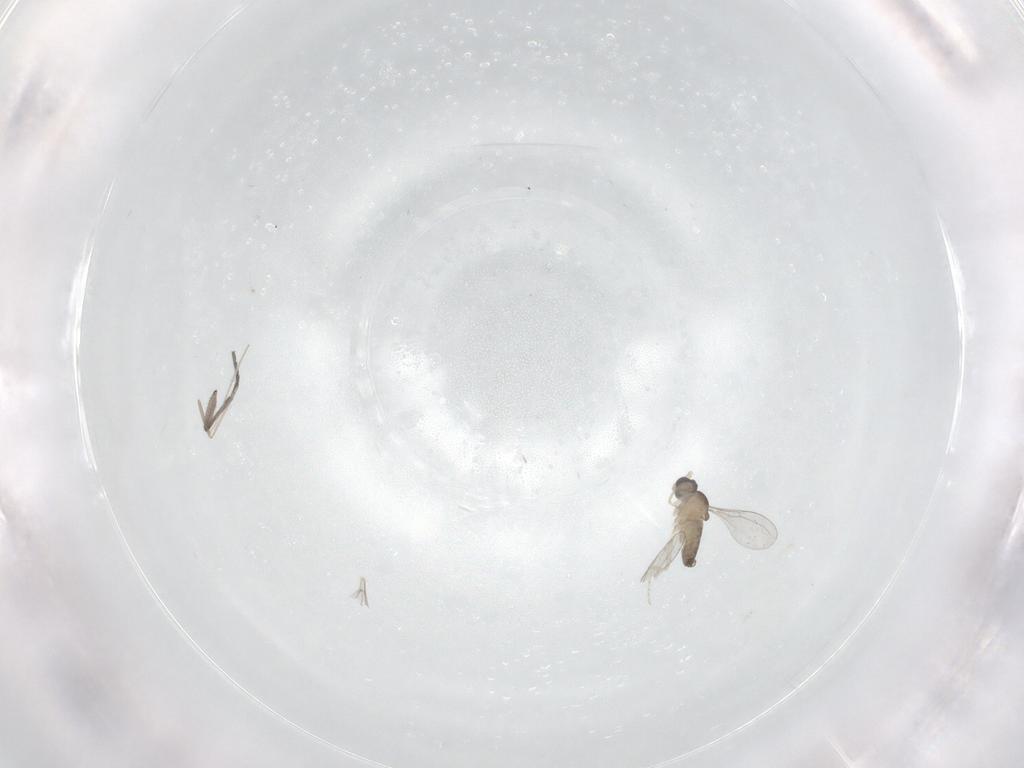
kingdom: Animalia
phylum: Arthropoda
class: Insecta
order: Diptera
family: Cecidomyiidae
